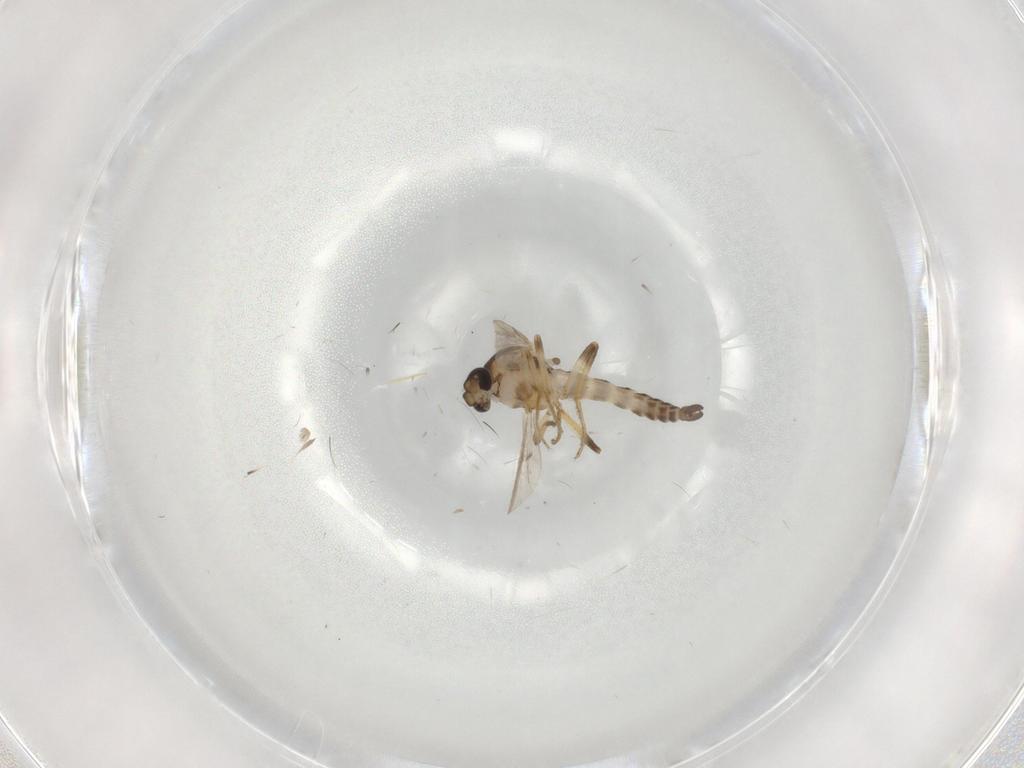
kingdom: Animalia
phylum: Arthropoda
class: Insecta
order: Diptera
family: Ceratopogonidae
